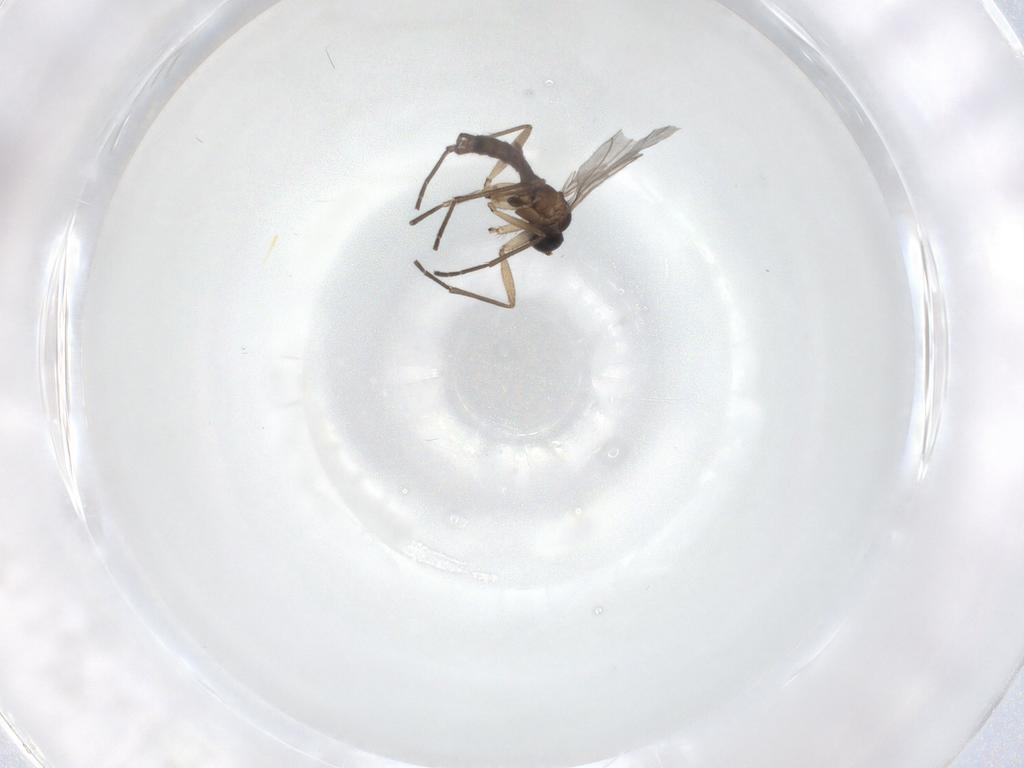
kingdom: Animalia
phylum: Arthropoda
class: Insecta
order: Diptera
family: Sciaridae
